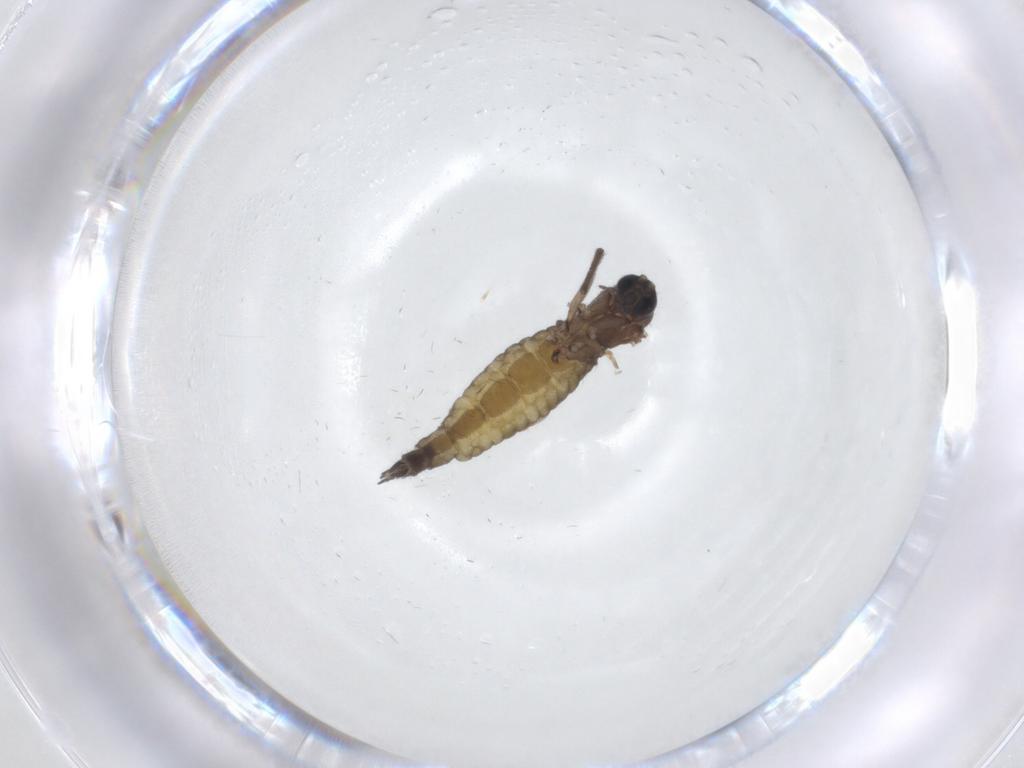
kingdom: Animalia
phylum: Arthropoda
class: Insecta
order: Diptera
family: Sciaridae
